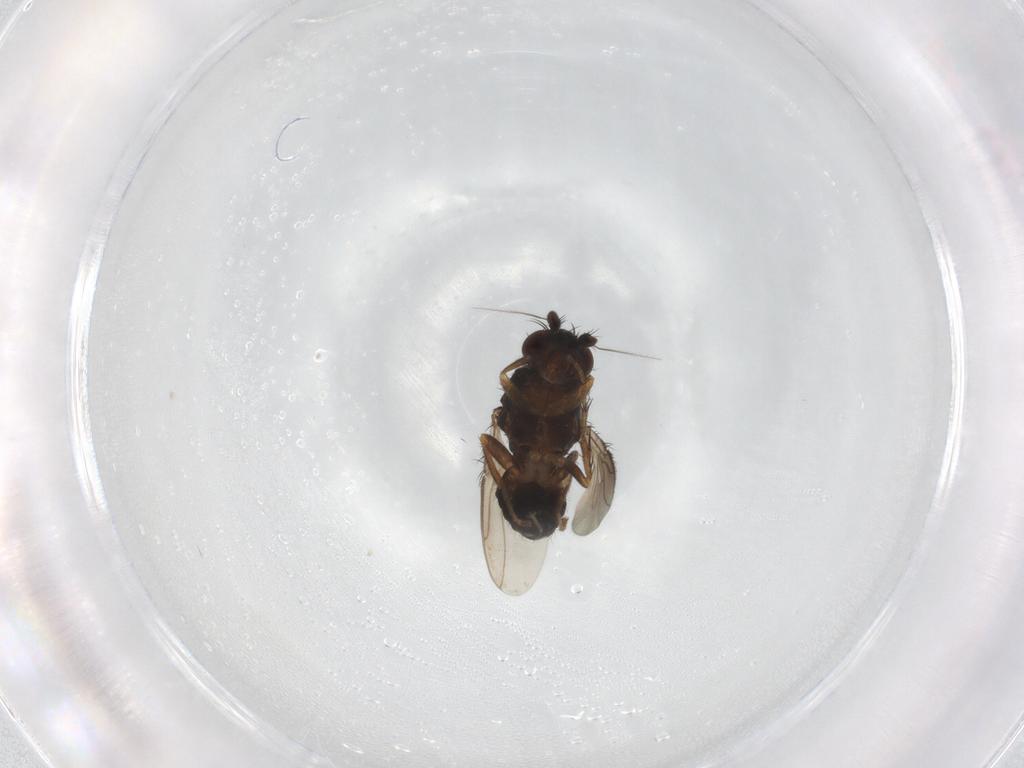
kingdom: Animalia
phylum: Arthropoda
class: Insecta
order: Diptera
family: Sphaeroceridae
